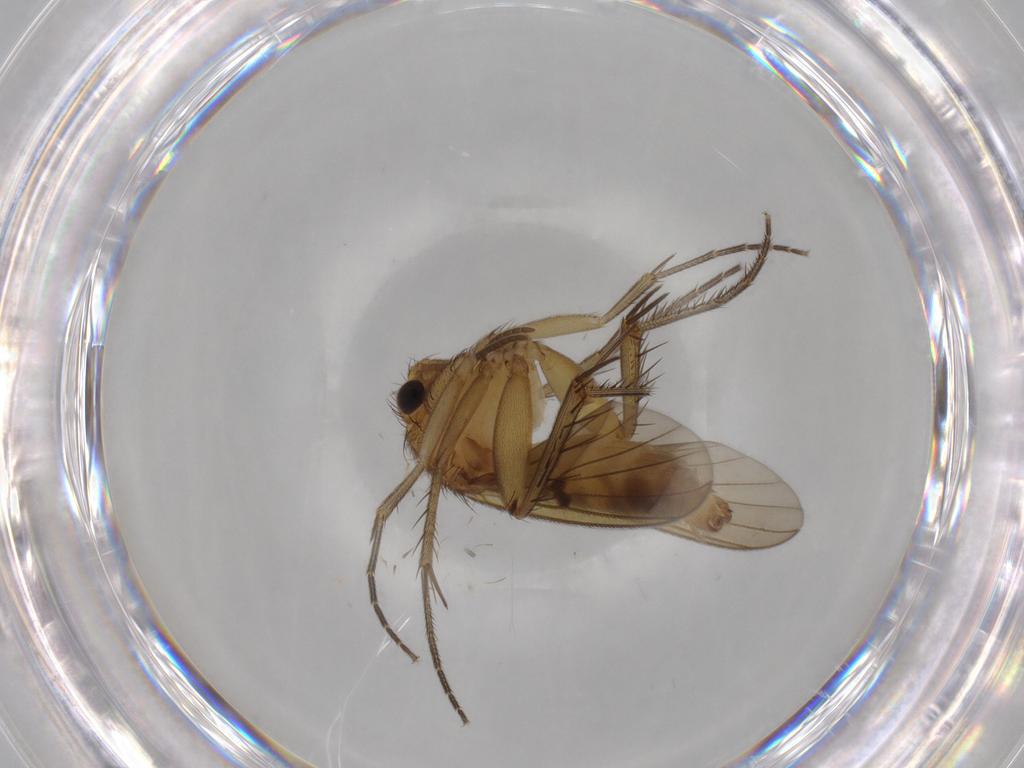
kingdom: Animalia
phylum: Arthropoda
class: Insecta
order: Diptera
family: Mycetophilidae
